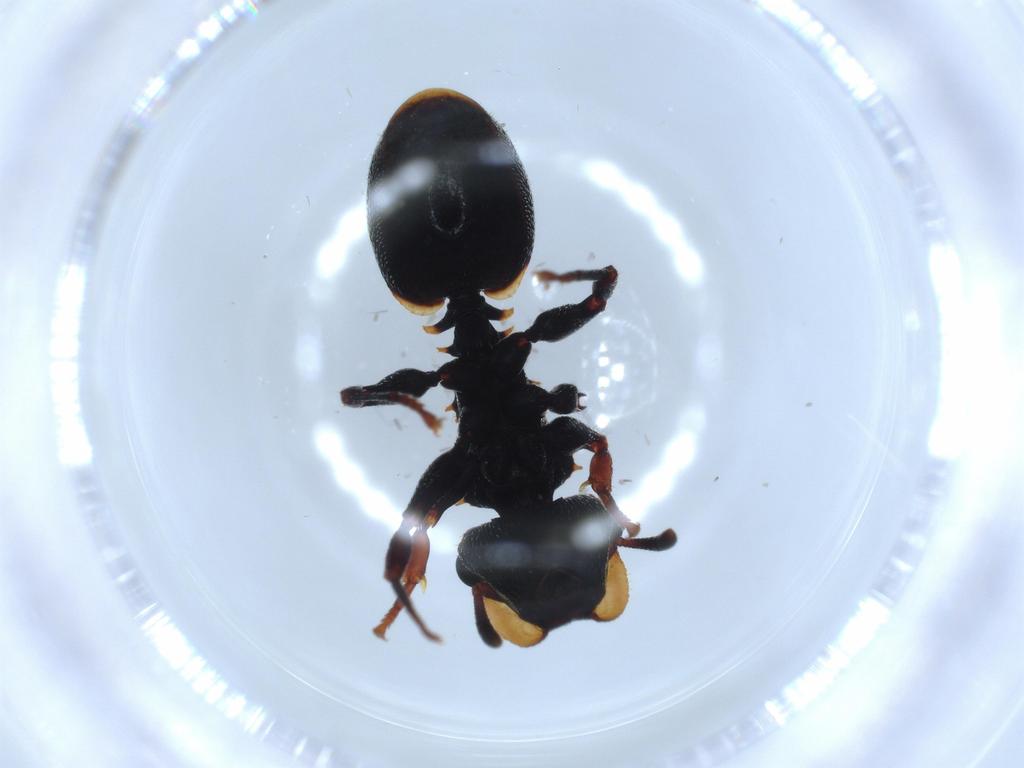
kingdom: Animalia
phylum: Arthropoda
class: Insecta
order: Hymenoptera
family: Formicidae
